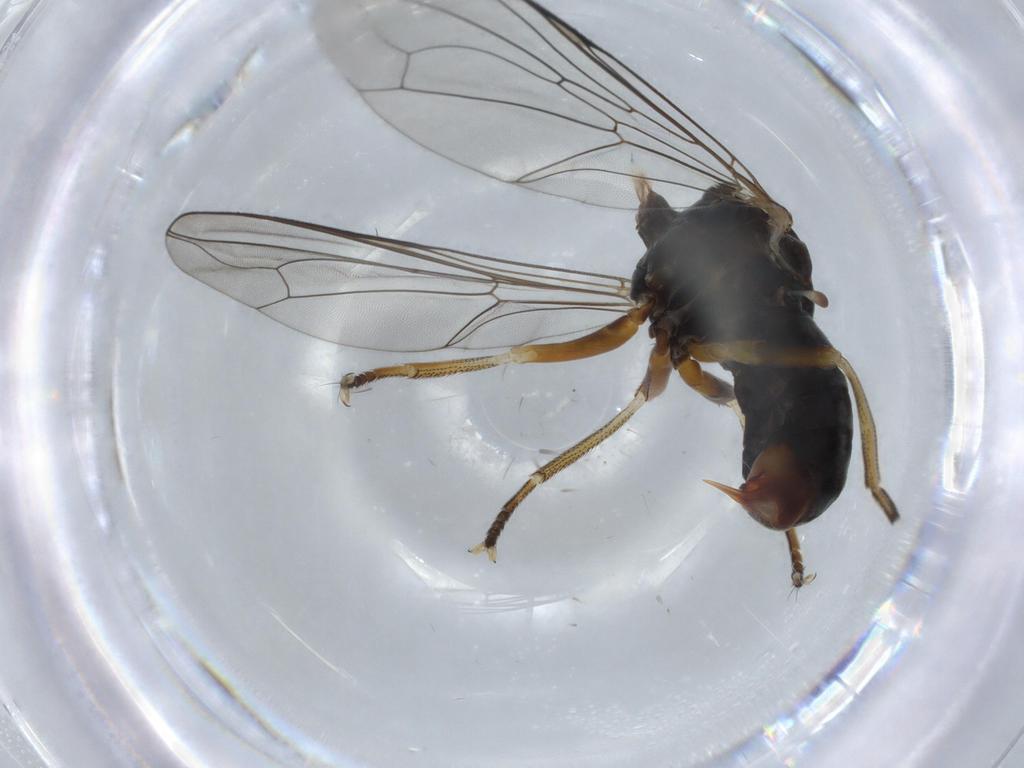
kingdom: Animalia
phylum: Arthropoda
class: Insecta
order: Diptera
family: Pipunculidae
